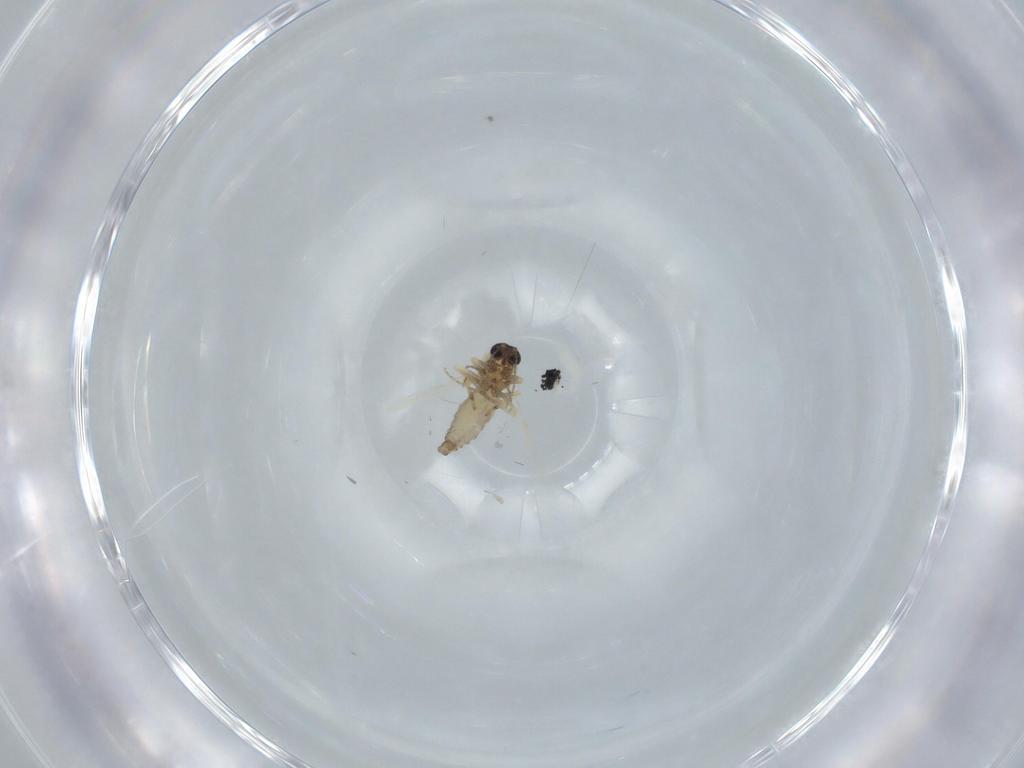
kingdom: Animalia
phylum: Arthropoda
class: Insecta
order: Diptera
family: Ceratopogonidae
